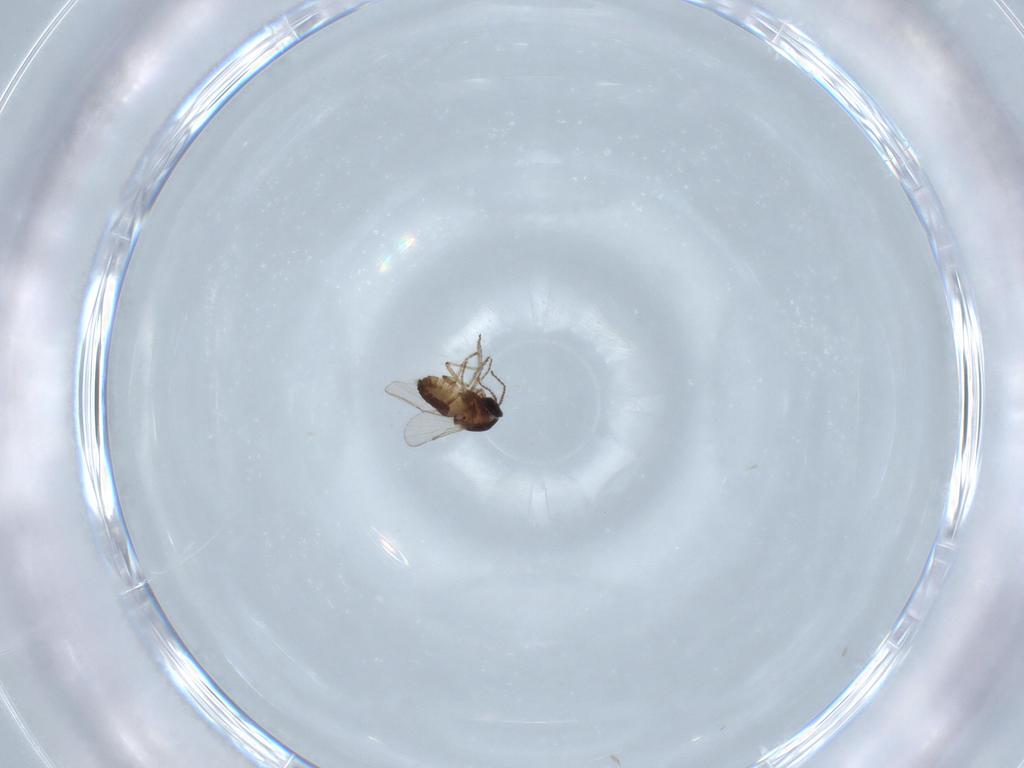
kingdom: Animalia
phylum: Arthropoda
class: Insecta
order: Diptera
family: Ceratopogonidae
